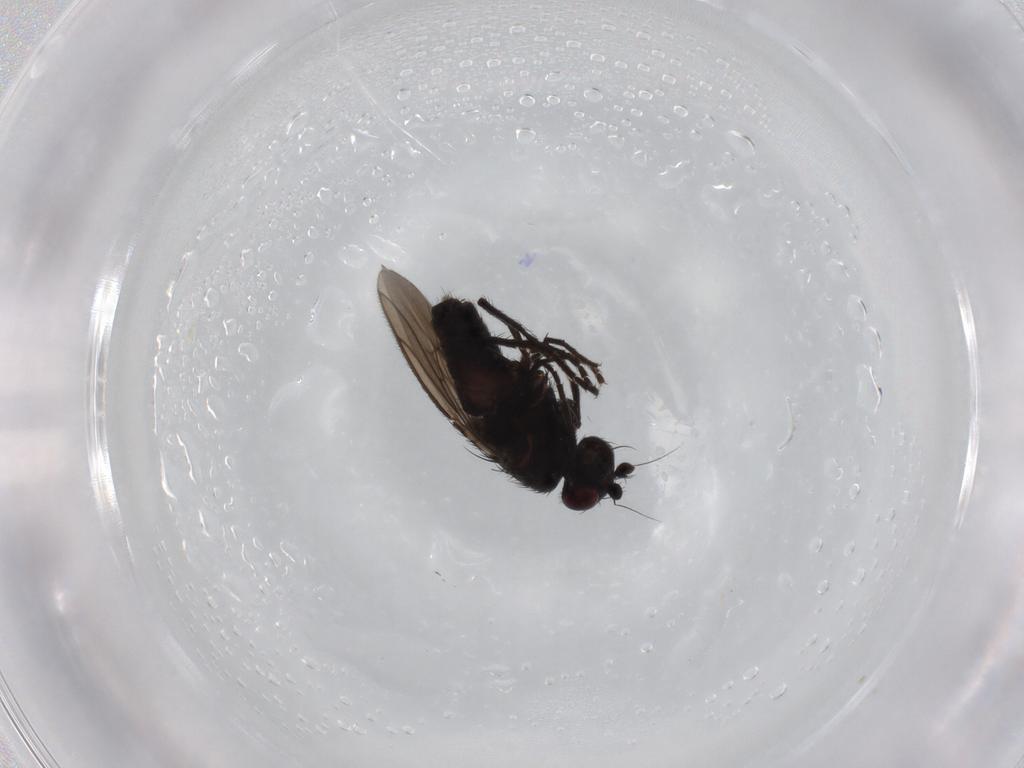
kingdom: Animalia
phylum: Arthropoda
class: Insecta
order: Diptera
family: Sphaeroceridae
